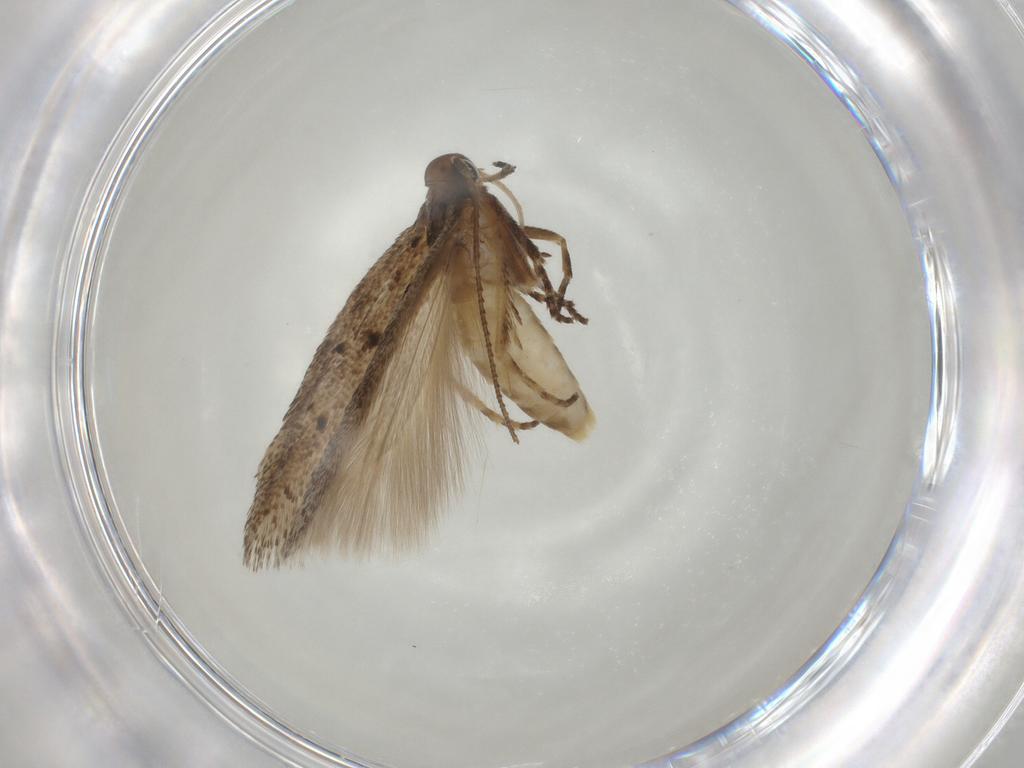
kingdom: Animalia
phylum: Arthropoda
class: Insecta
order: Lepidoptera
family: Gelechiidae
